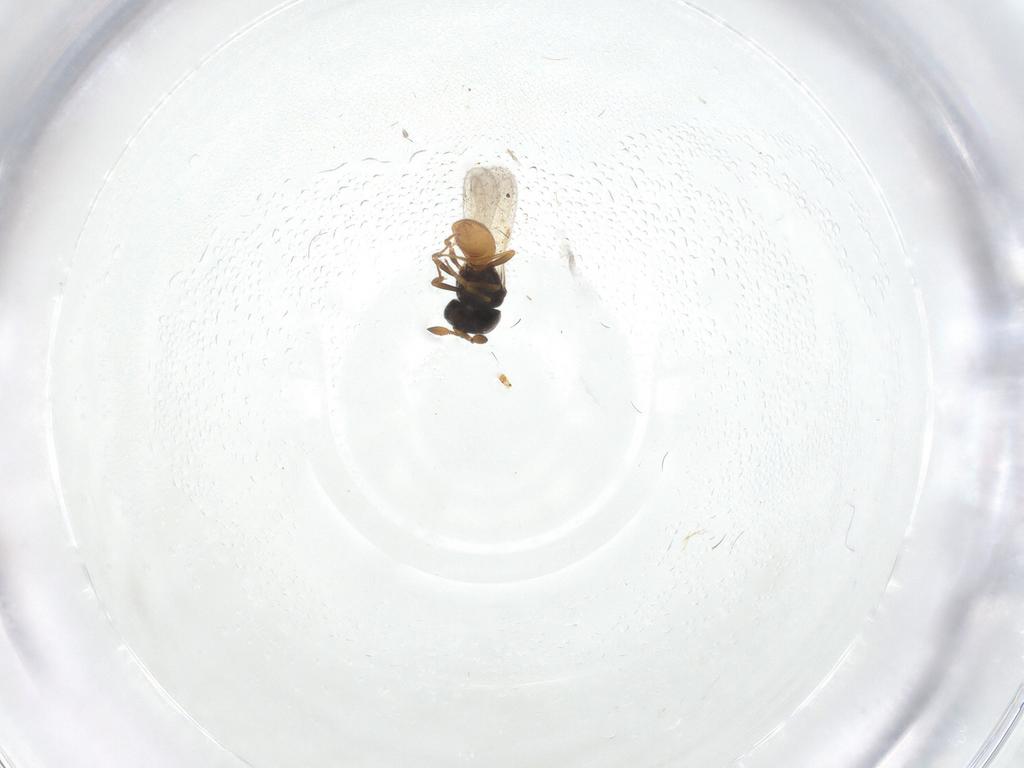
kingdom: Animalia
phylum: Arthropoda
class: Insecta
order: Hymenoptera
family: Scelionidae
